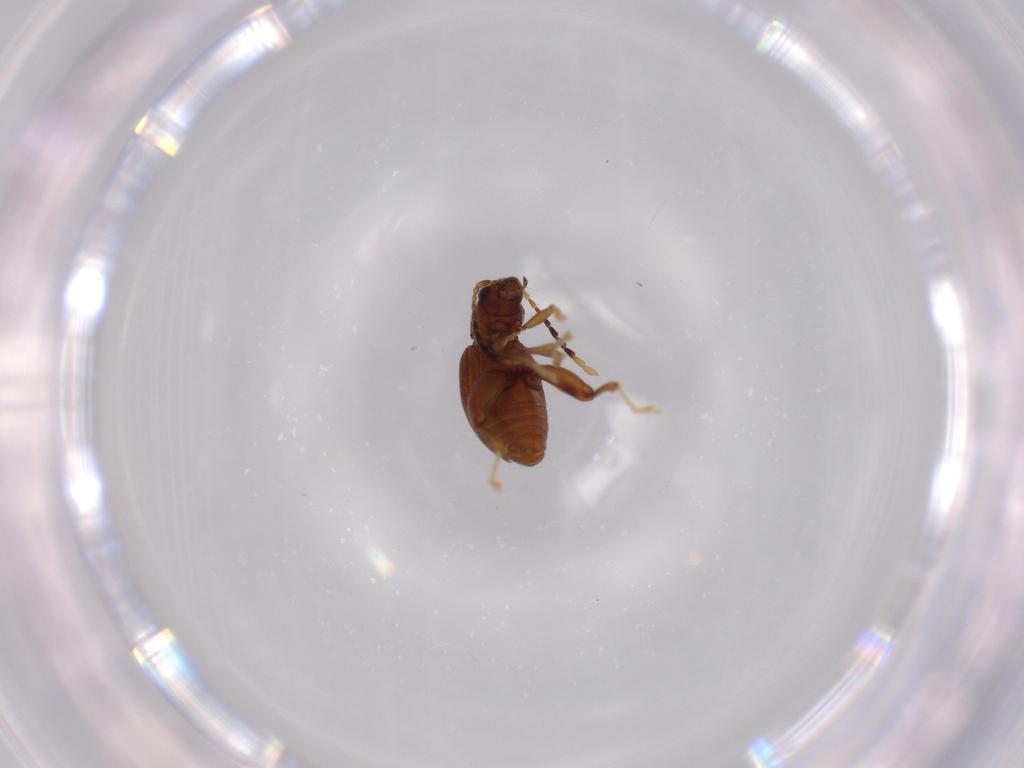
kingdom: Animalia
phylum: Arthropoda
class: Insecta
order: Coleoptera
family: Chrysomelidae
